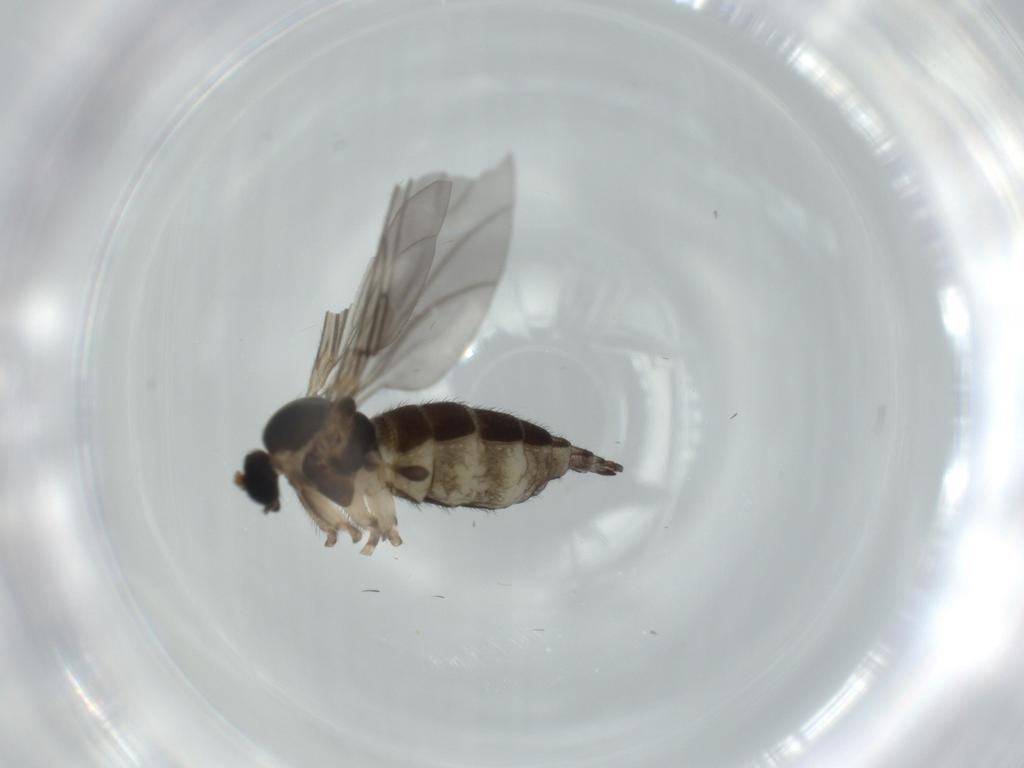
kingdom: Animalia
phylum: Arthropoda
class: Insecta
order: Diptera
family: Sciaridae
